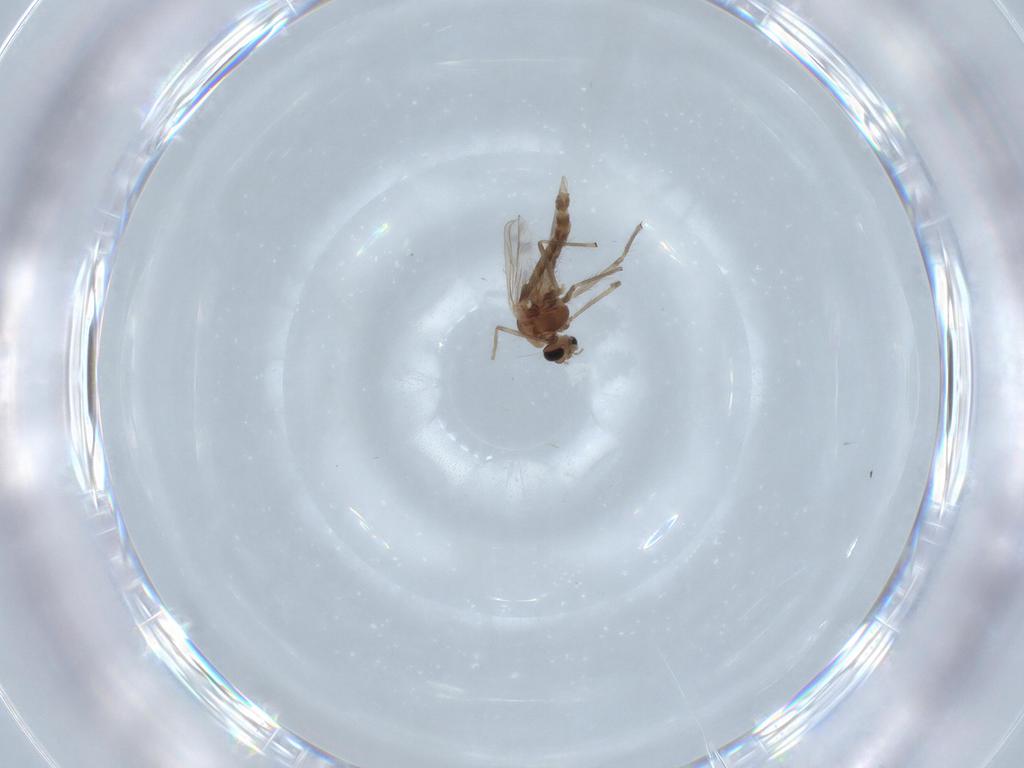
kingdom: Animalia
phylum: Arthropoda
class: Insecta
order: Diptera
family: Chironomidae
